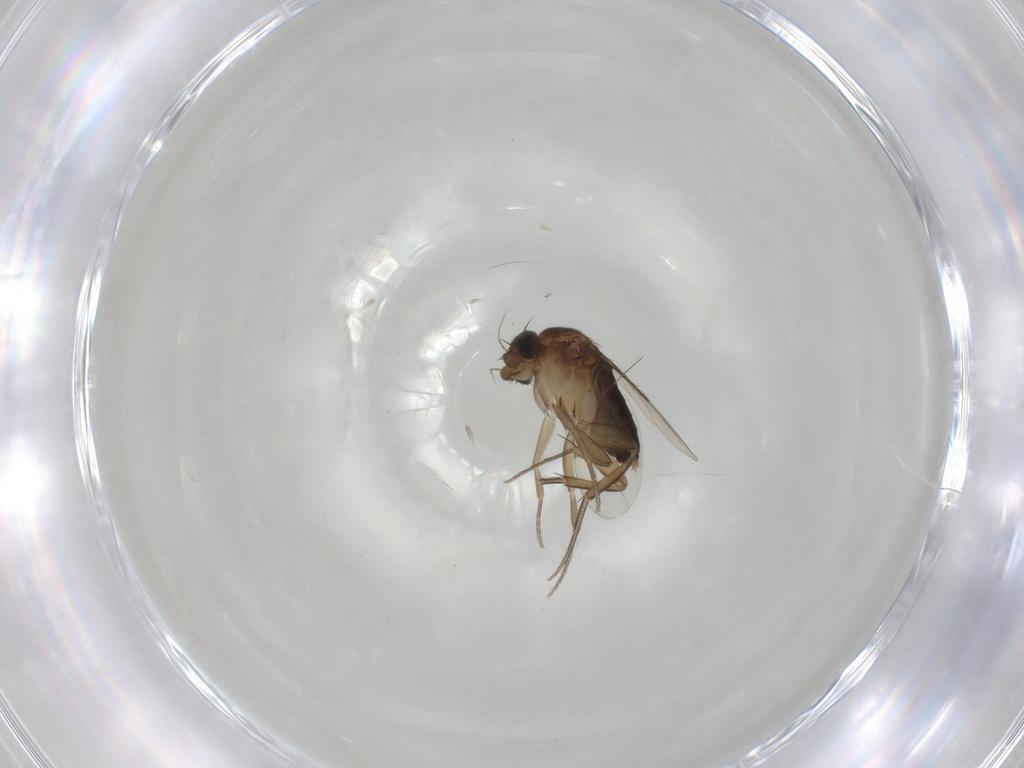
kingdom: Animalia
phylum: Arthropoda
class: Insecta
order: Diptera
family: Phoridae
